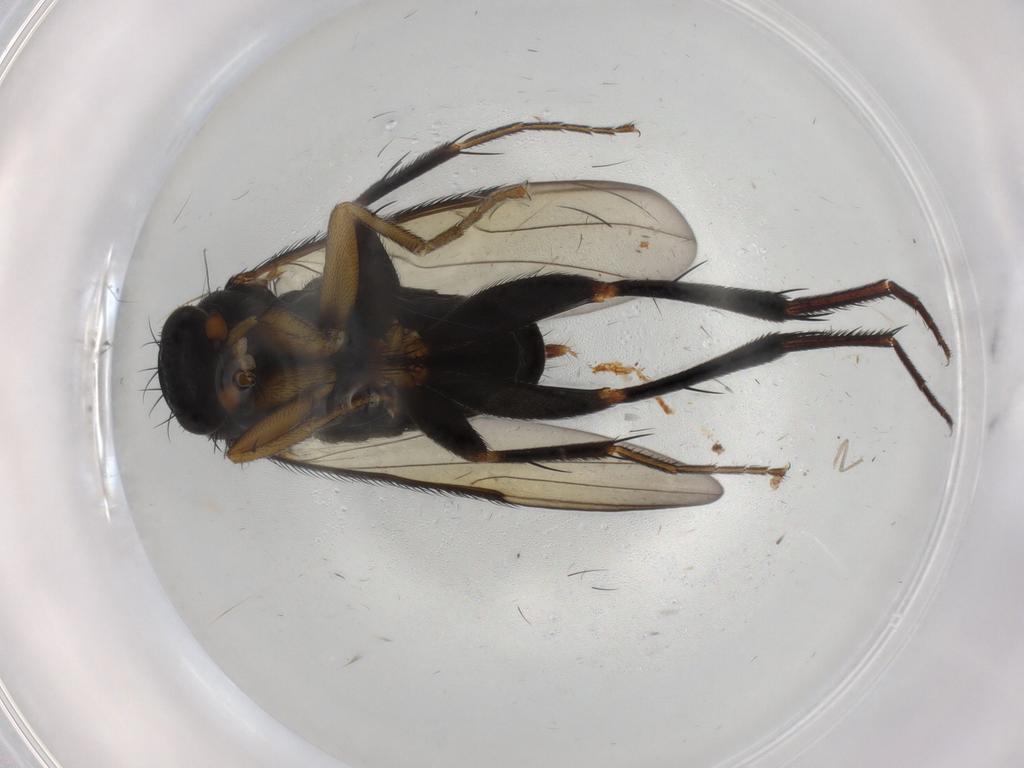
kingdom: Animalia
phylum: Arthropoda
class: Insecta
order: Diptera
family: Phoridae
